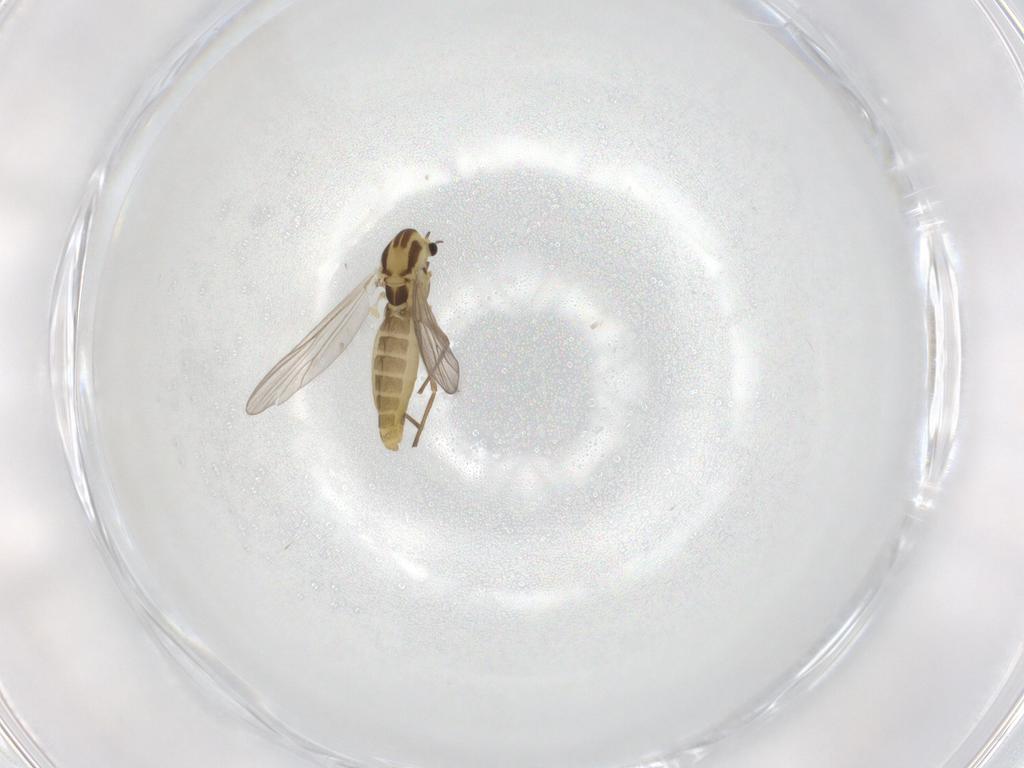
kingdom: Animalia
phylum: Arthropoda
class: Insecta
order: Diptera
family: Chironomidae
